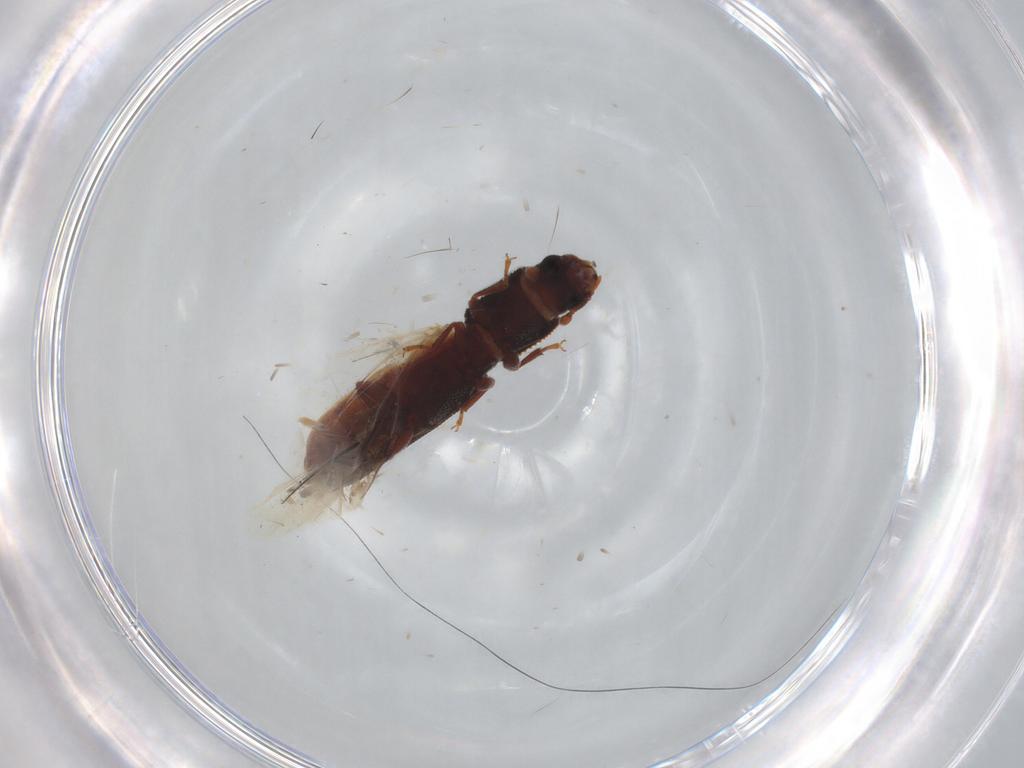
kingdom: Animalia
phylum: Arthropoda
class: Insecta
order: Coleoptera
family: Zopheridae
